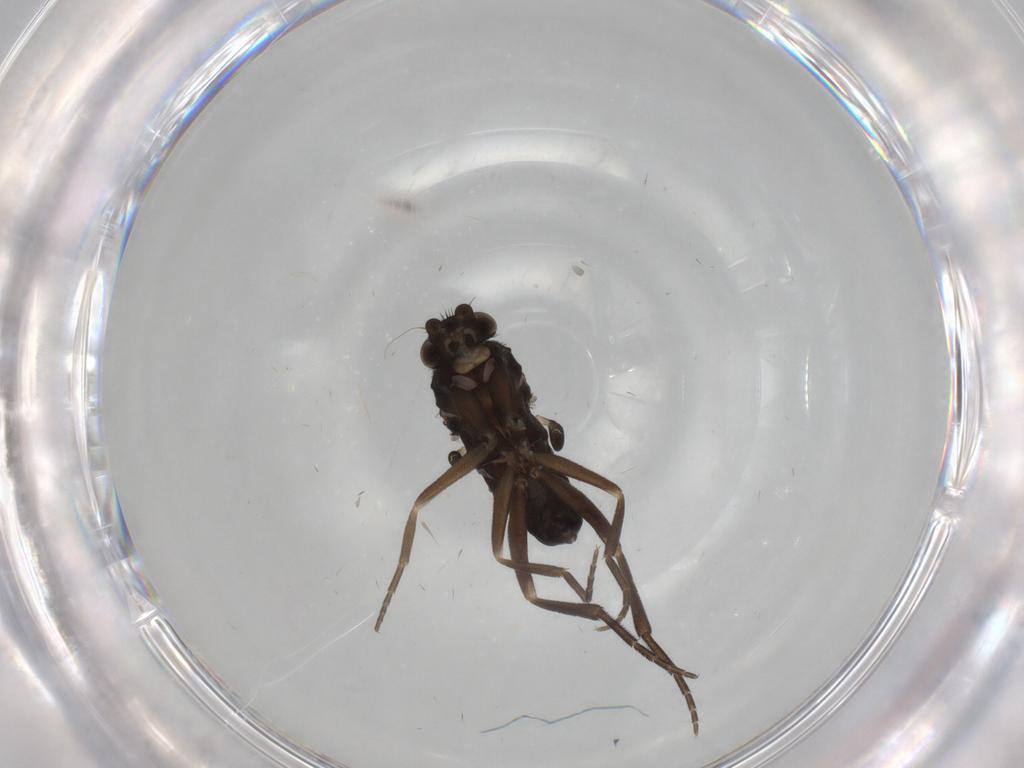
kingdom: Animalia
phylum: Arthropoda
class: Insecta
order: Diptera
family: Phoridae
